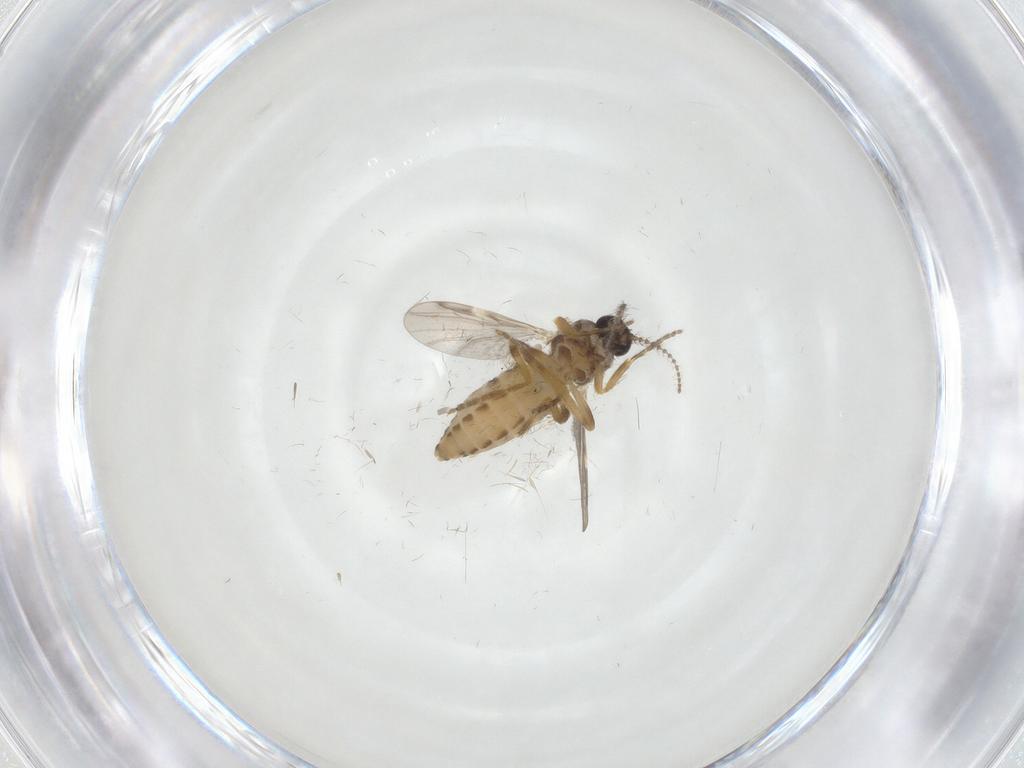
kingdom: Animalia
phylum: Arthropoda
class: Insecta
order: Diptera
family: Ceratopogonidae
